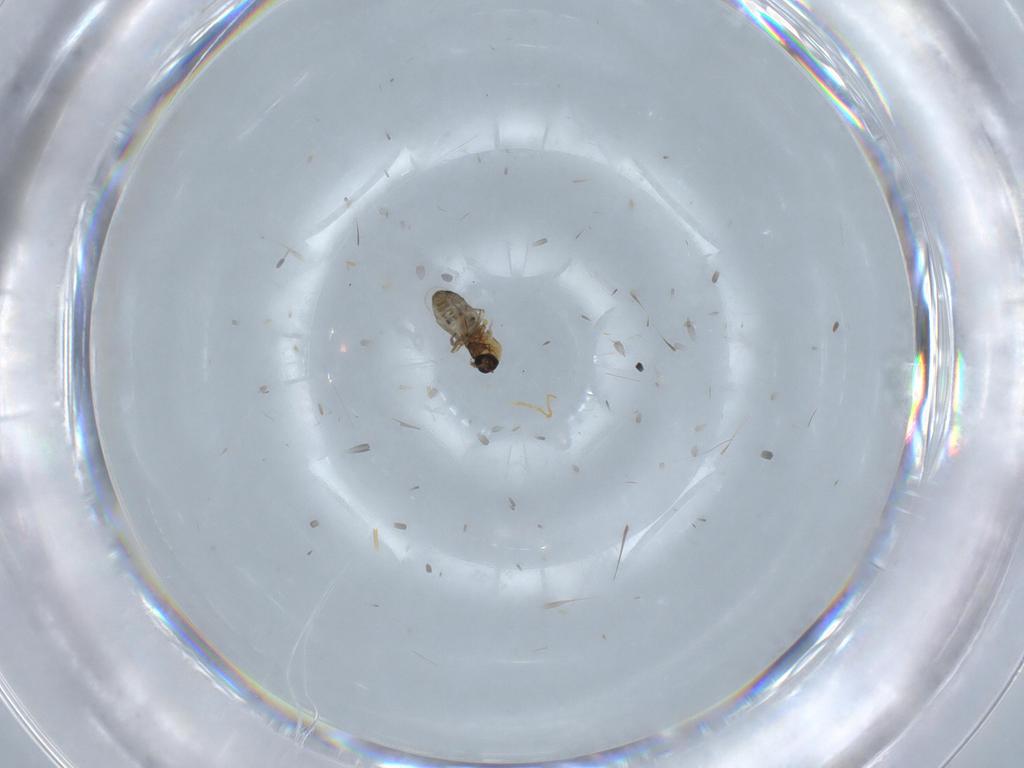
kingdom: Animalia
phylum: Arthropoda
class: Insecta
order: Diptera
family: Ceratopogonidae
